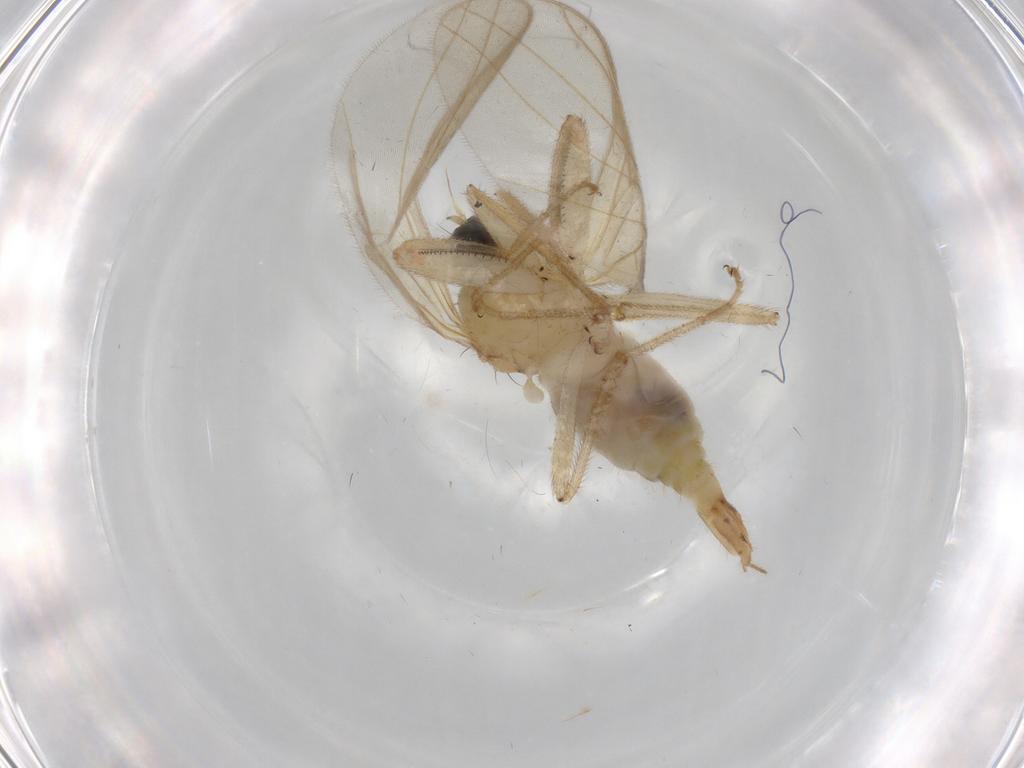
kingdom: Animalia
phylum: Arthropoda
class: Insecta
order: Diptera
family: Hybotidae
